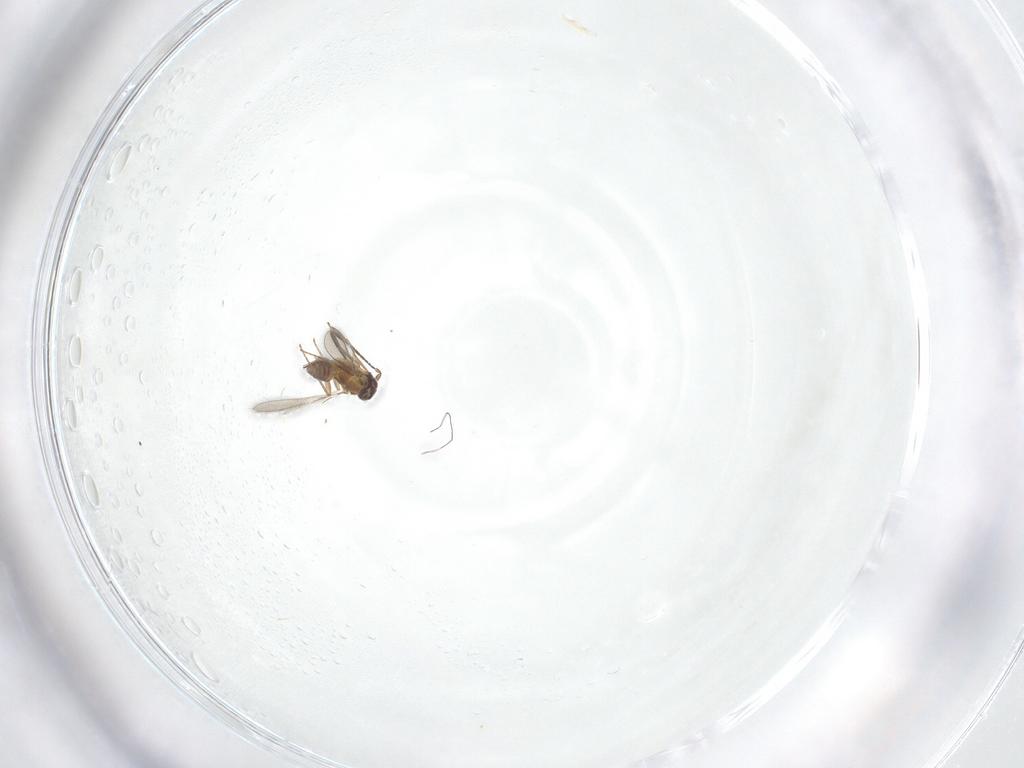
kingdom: Animalia
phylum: Arthropoda
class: Insecta
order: Hymenoptera
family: Mymaridae
